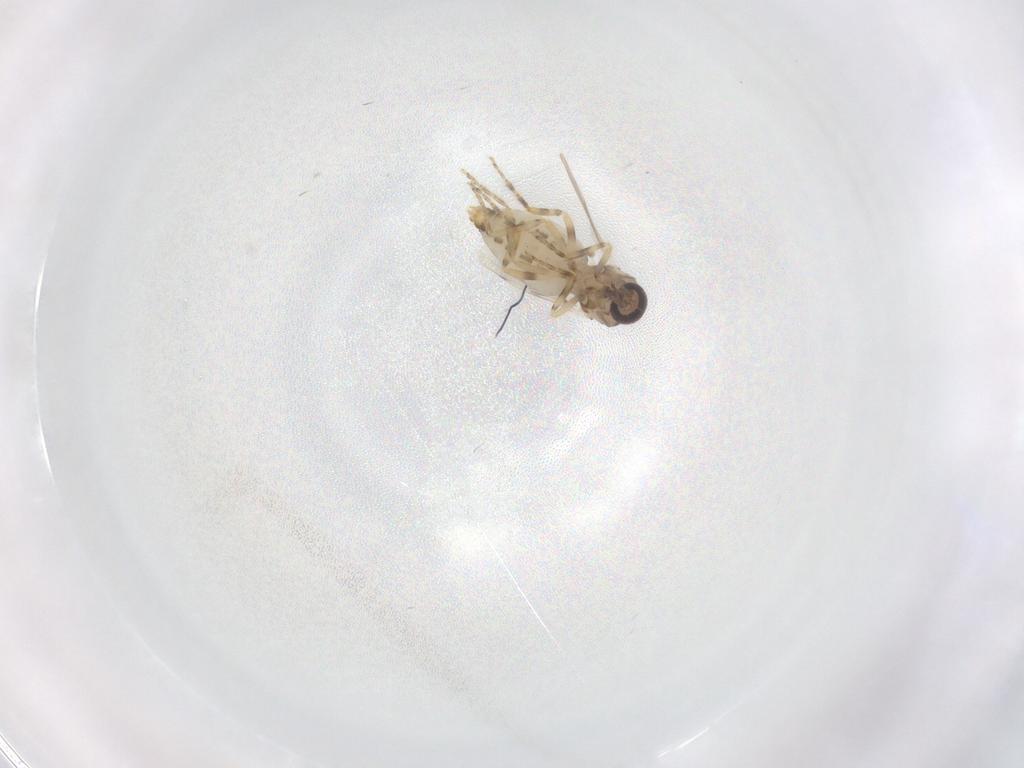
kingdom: Animalia
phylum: Arthropoda
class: Insecta
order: Diptera
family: Ceratopogonidae
